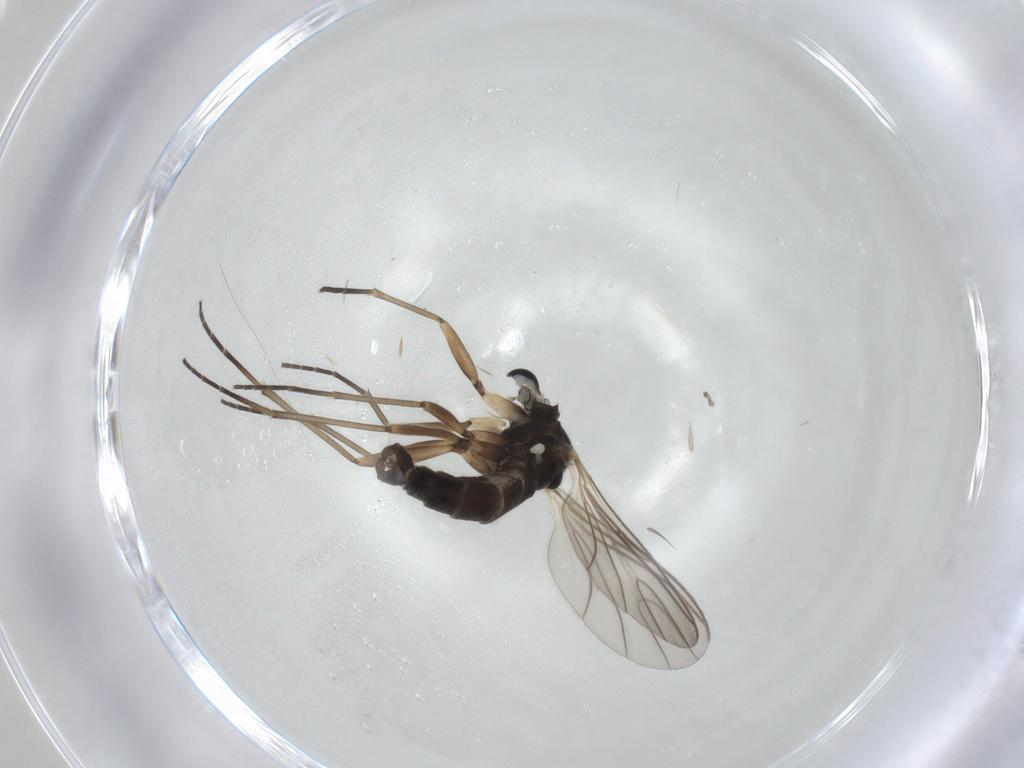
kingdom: Animalia
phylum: Arthropoda
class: Insecta
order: Diptera
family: Sciaridae
